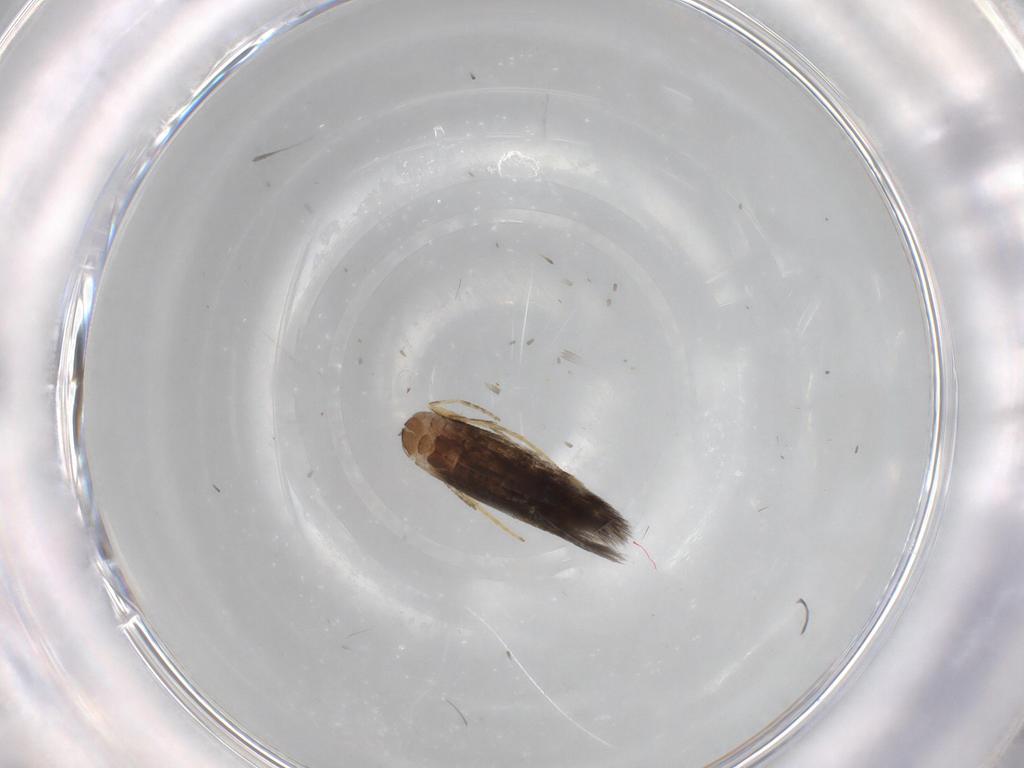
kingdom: Animalia
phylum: Arthropoda
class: Insecta
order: Lepidoptera
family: Heliozelidae
